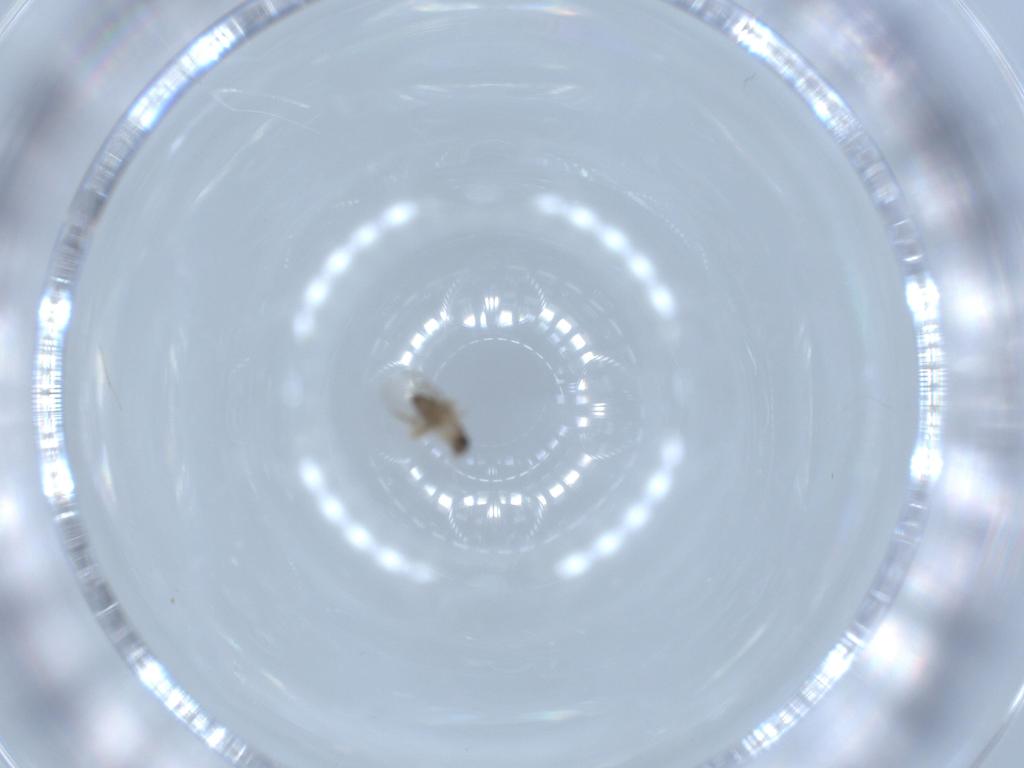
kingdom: Animalia
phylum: Arthropoda
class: Insecta
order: Diptera
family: Phoridae
